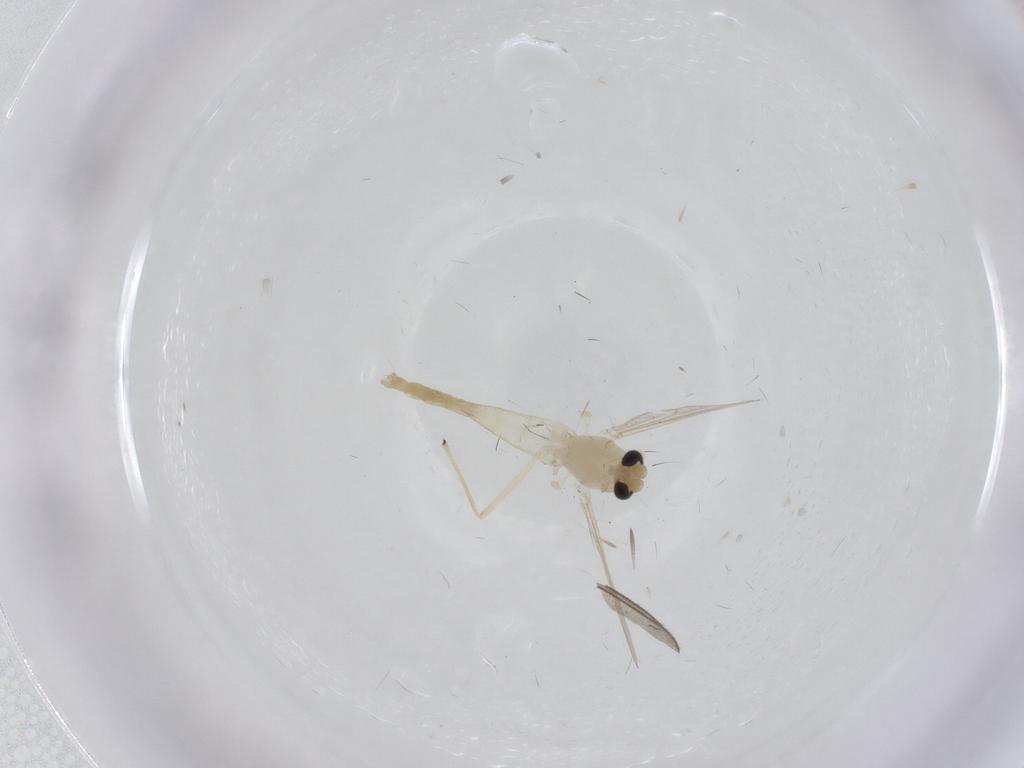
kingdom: Animalia
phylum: Arthropoda
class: Insecta
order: Diptera
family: Chironomidae
